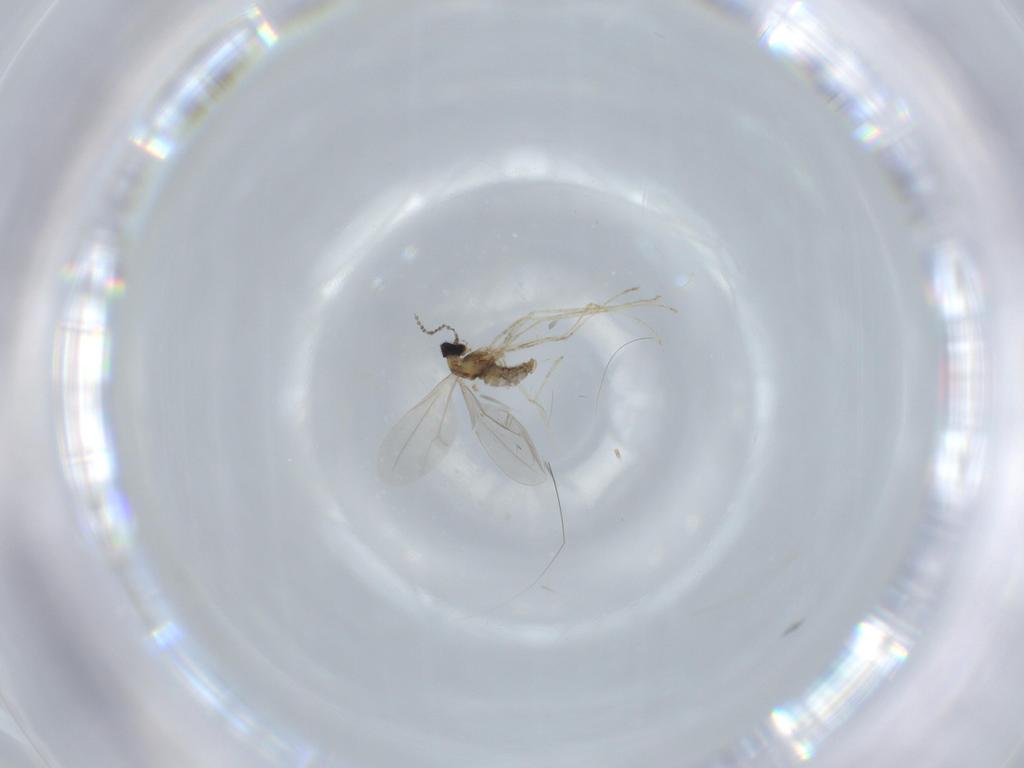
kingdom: Animalia
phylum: Arthropoda
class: Insecta
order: Diptera
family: Cecidomyiidae
